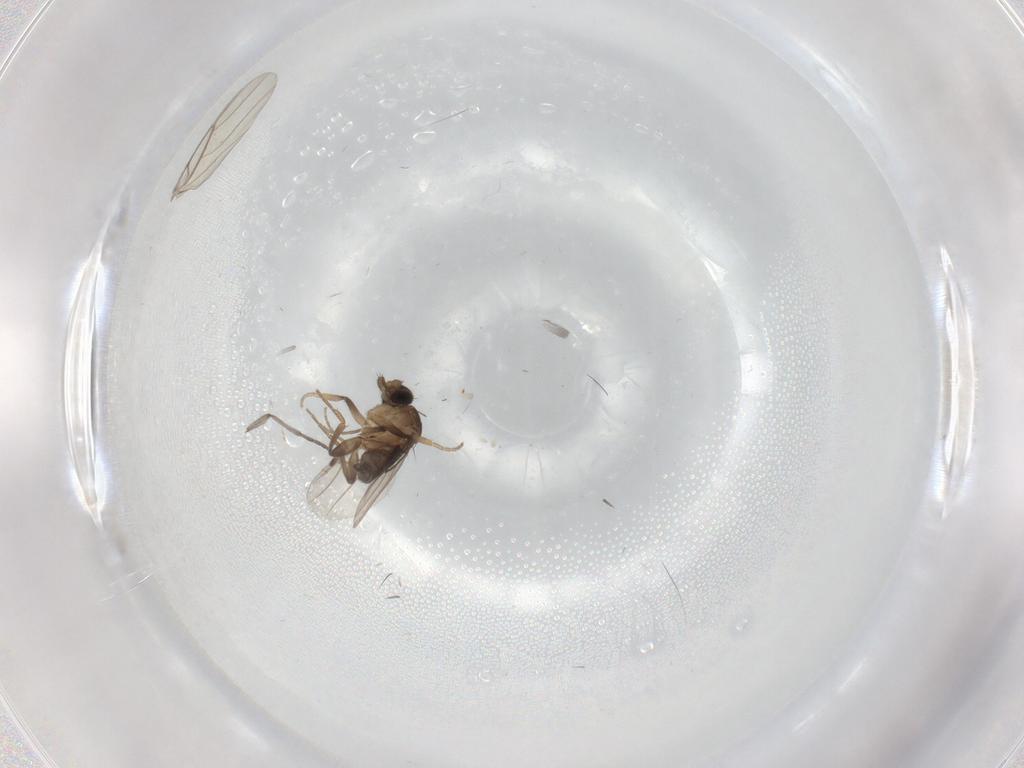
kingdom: Animalia
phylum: Arthropoda
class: Insecta
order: Diptera
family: Sciaridae
